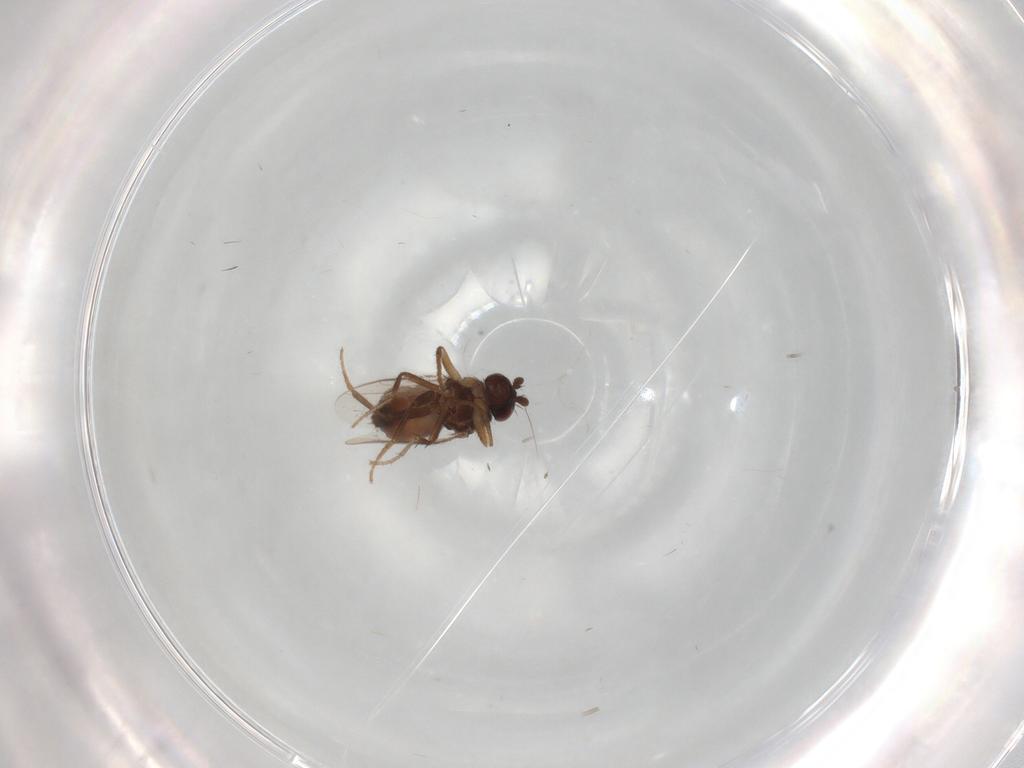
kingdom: Animalia
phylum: Arthropoda
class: Insecta
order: Diptera
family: Sphaeroceridae
